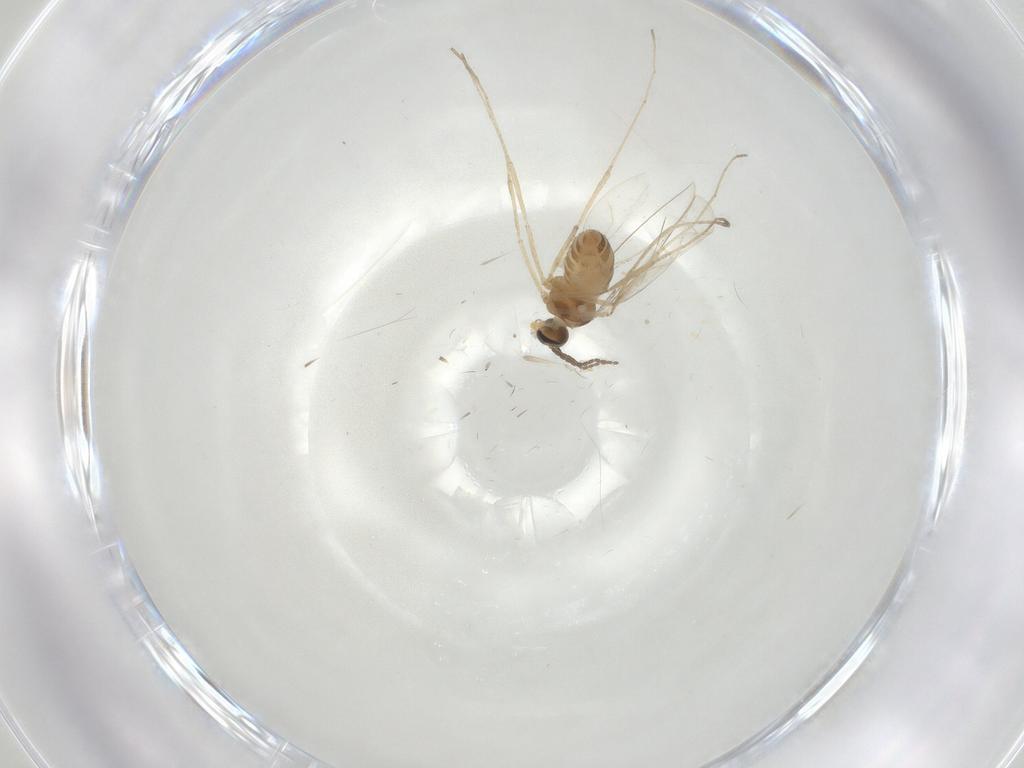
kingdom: Animalia
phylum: Arthropoda
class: Insecta
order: Diptera
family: Cecidomyiidae
